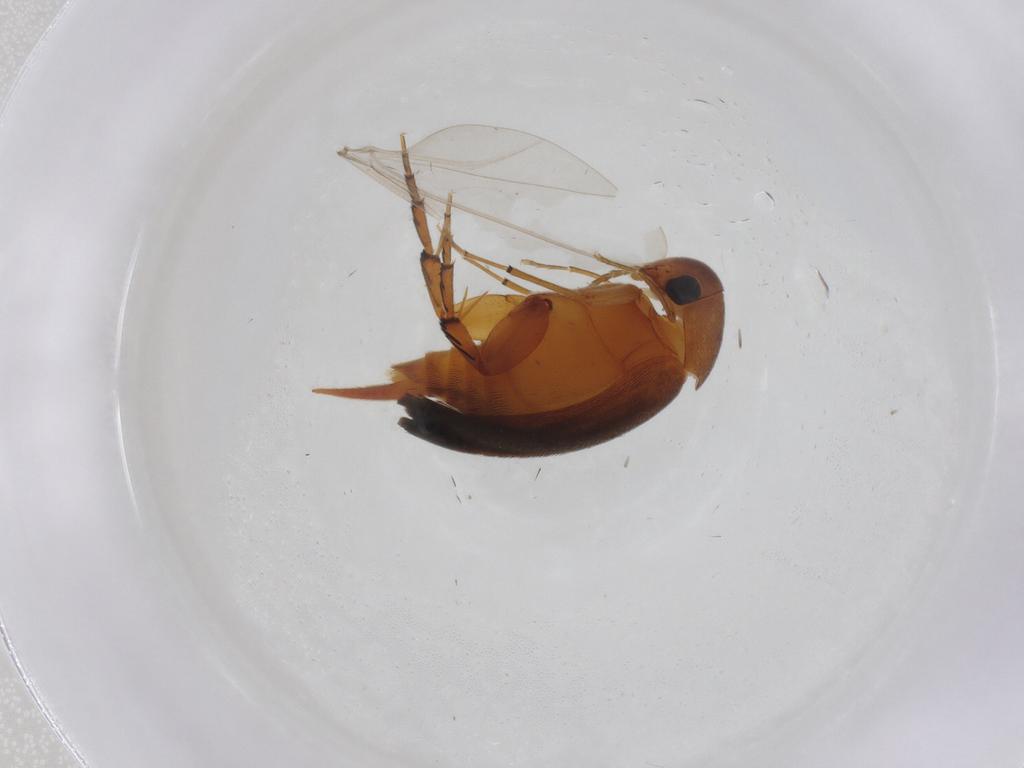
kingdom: Animalia
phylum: Arthropoda
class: Insecta
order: Coleoptera
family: Mordellidae
